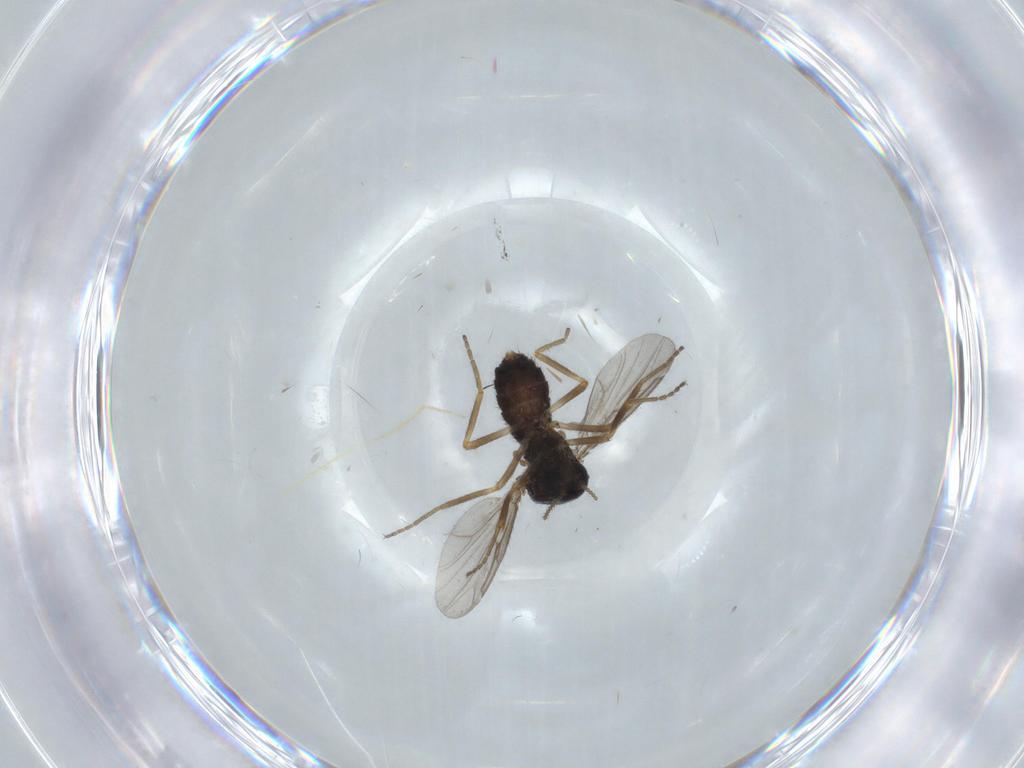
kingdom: Animalia
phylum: Arthropoda
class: Insecta
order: Diptera
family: Ceratopogonidae
